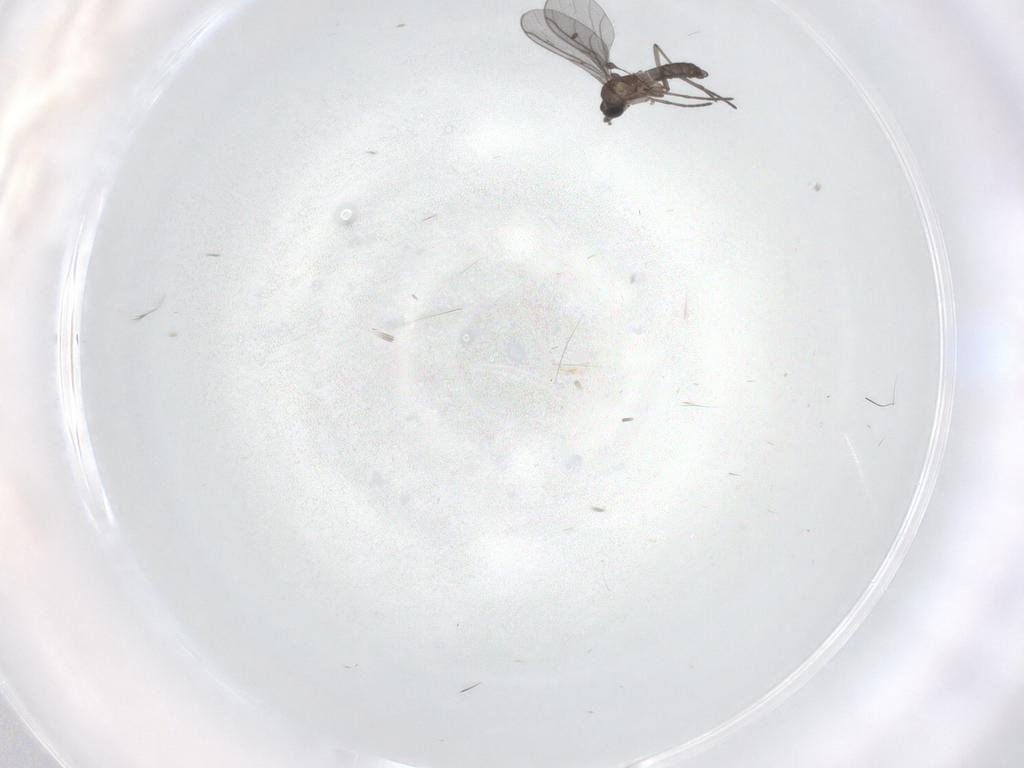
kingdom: Animalia
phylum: Arthropoda
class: Insecta
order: Diptera
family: Sciaridae
